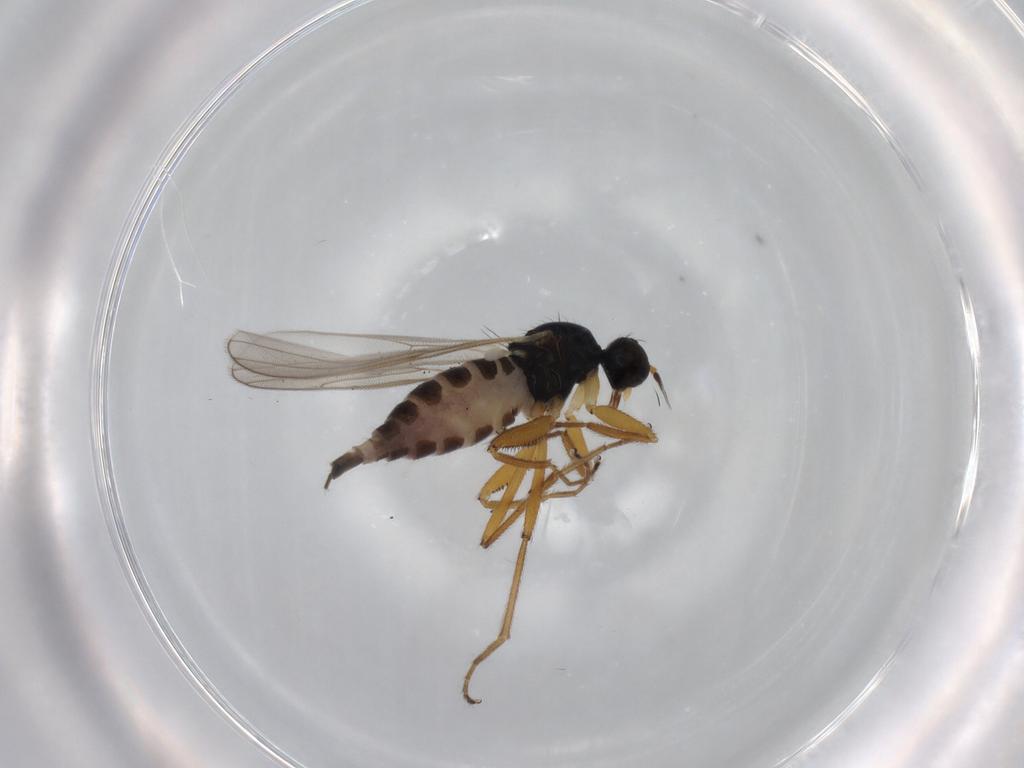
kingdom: Animalia
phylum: Arthropoda
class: Insecta
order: Diptera
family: Hybotidae
